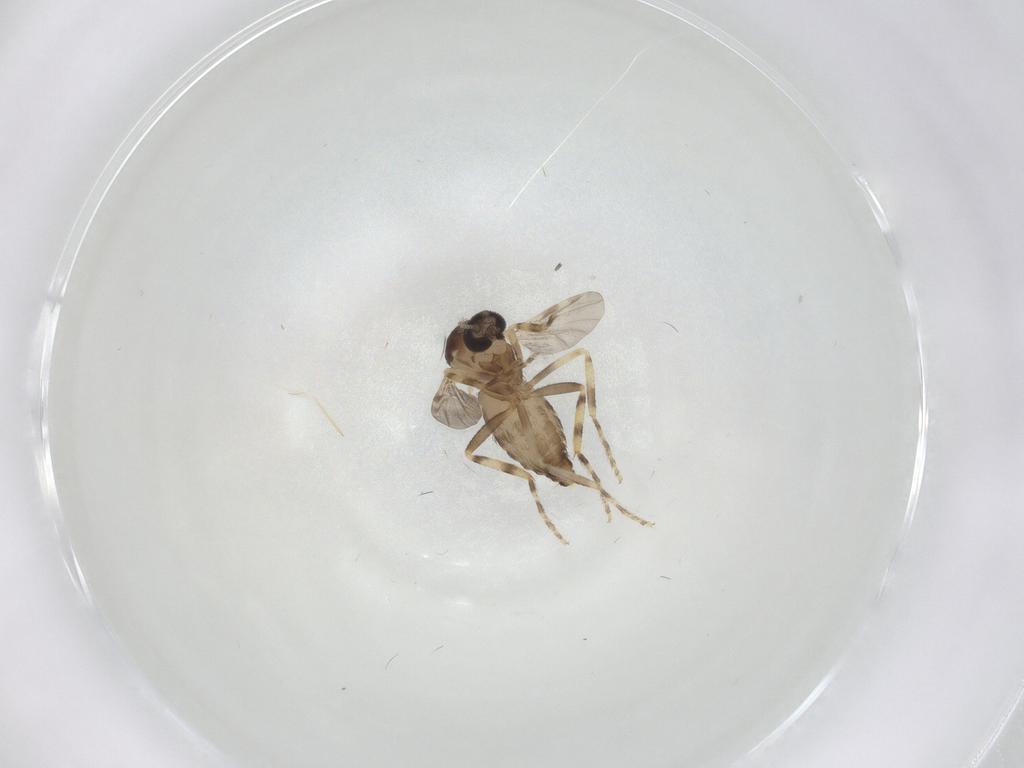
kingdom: Animalia
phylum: Arthropoda
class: Insecta
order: Diptera
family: Ceratopogonidae
